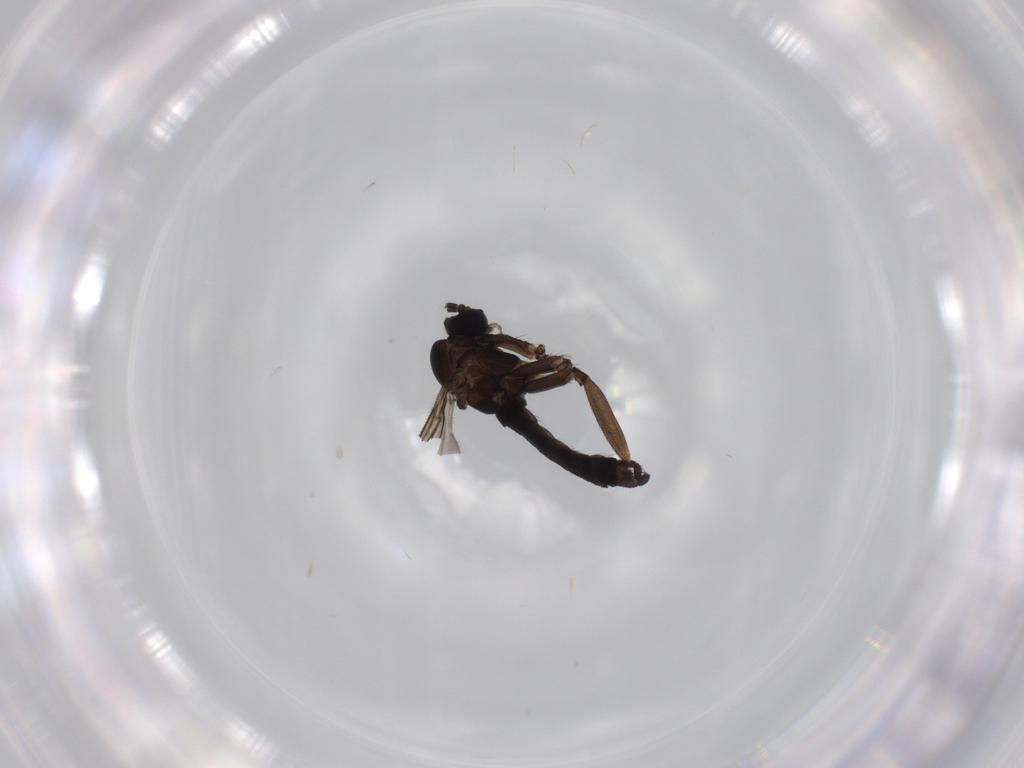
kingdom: Animalia
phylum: Arthropoda
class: Insecta
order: Diptera
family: Sciaridae
